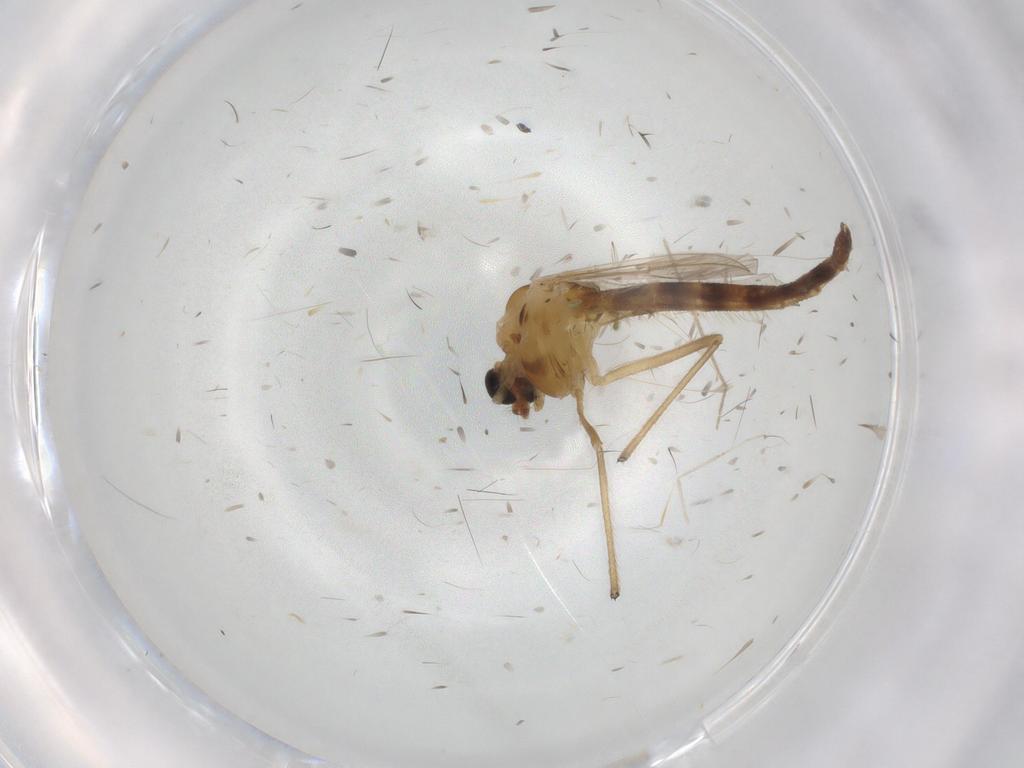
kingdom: Animalia
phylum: Arthropoda
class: Insecta
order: Diptera
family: Chironomidae
